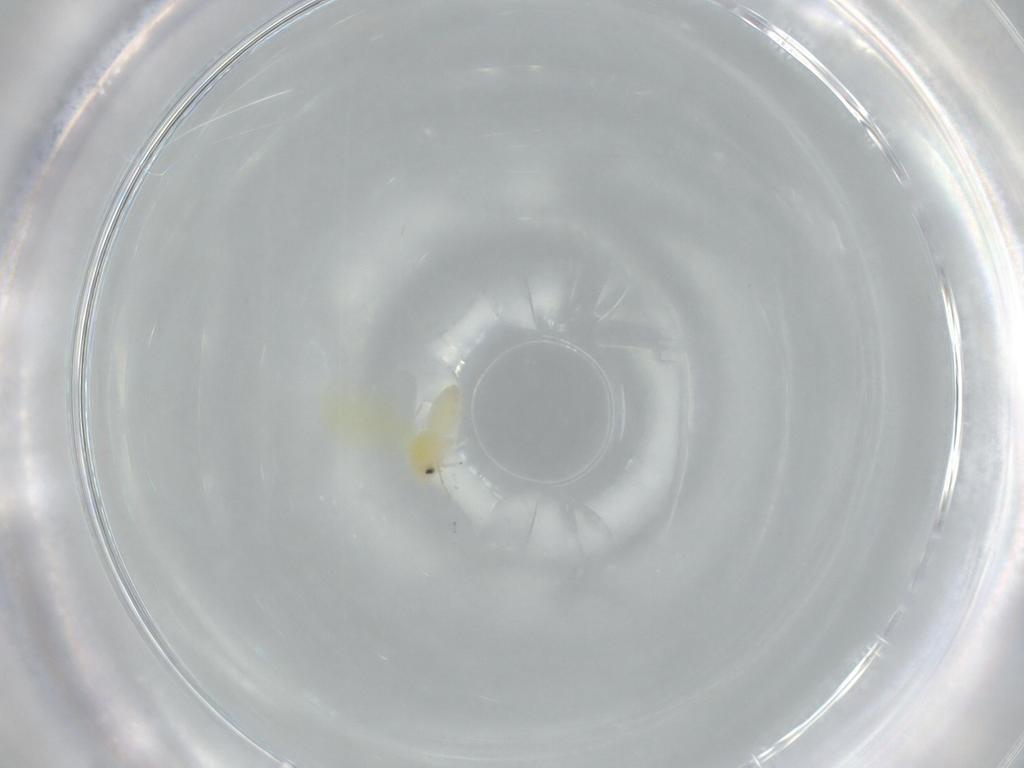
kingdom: Animalia
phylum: Arthropoda
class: Insecta
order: Hemiptera
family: Aleyrodidae
